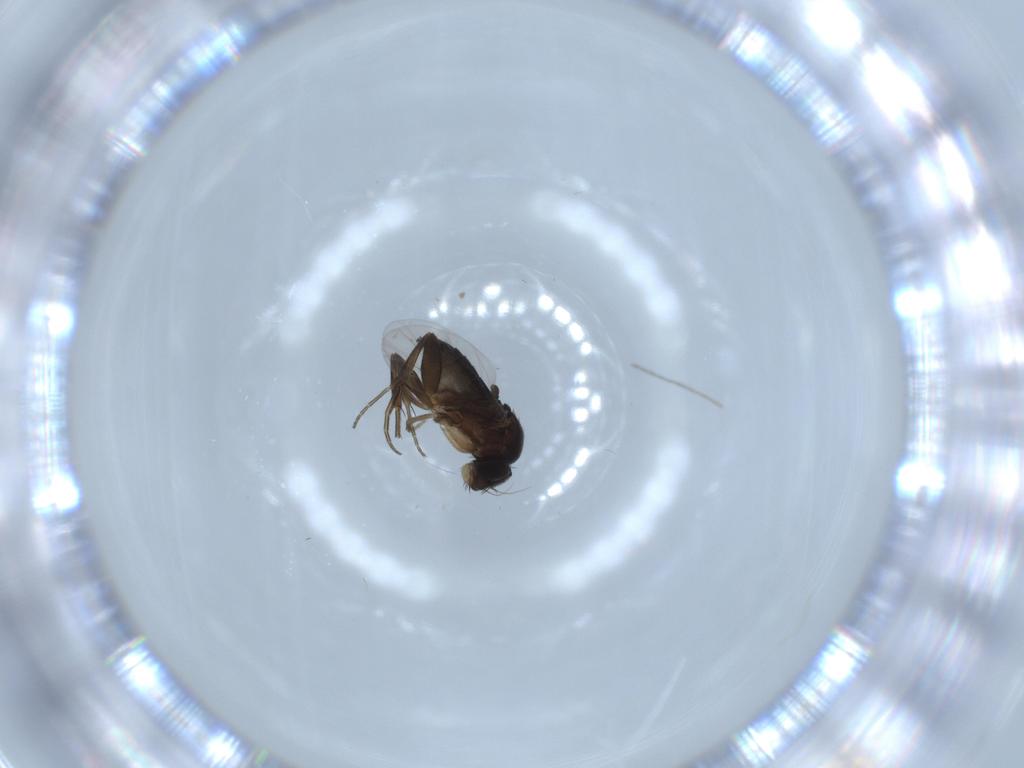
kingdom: Animalia
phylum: Arthropoda
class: Insecta
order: Diptera
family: Phoridae
